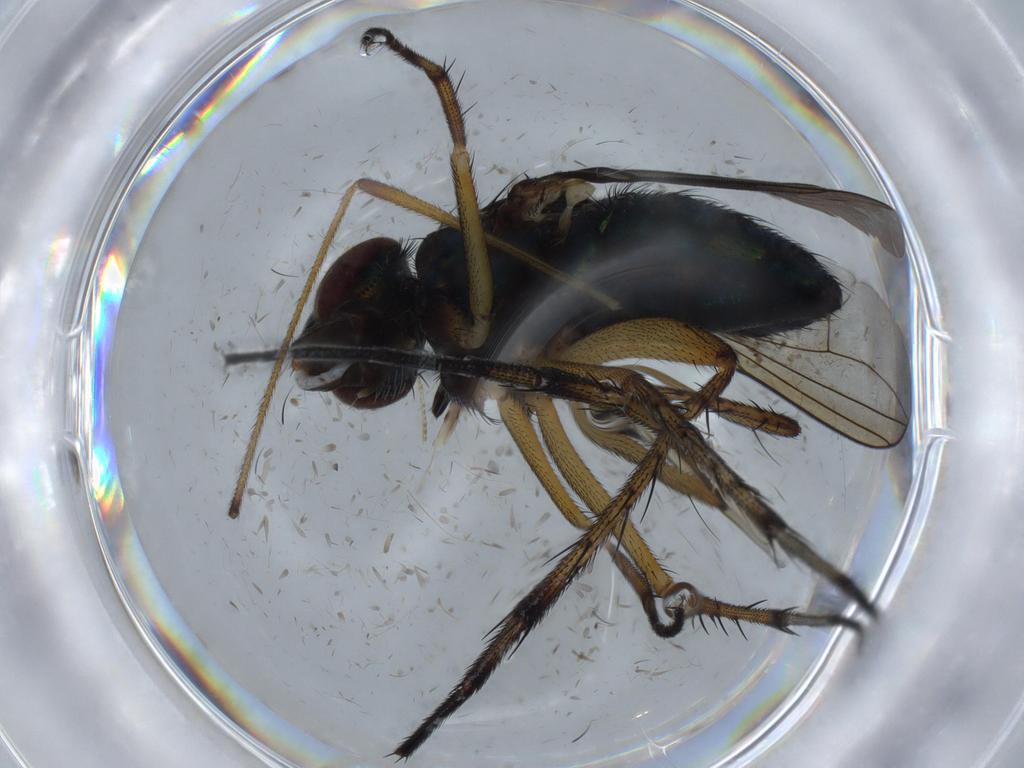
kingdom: Animalia
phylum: Arthropoda
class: Insecta
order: Diptera
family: Dolichopodidae
